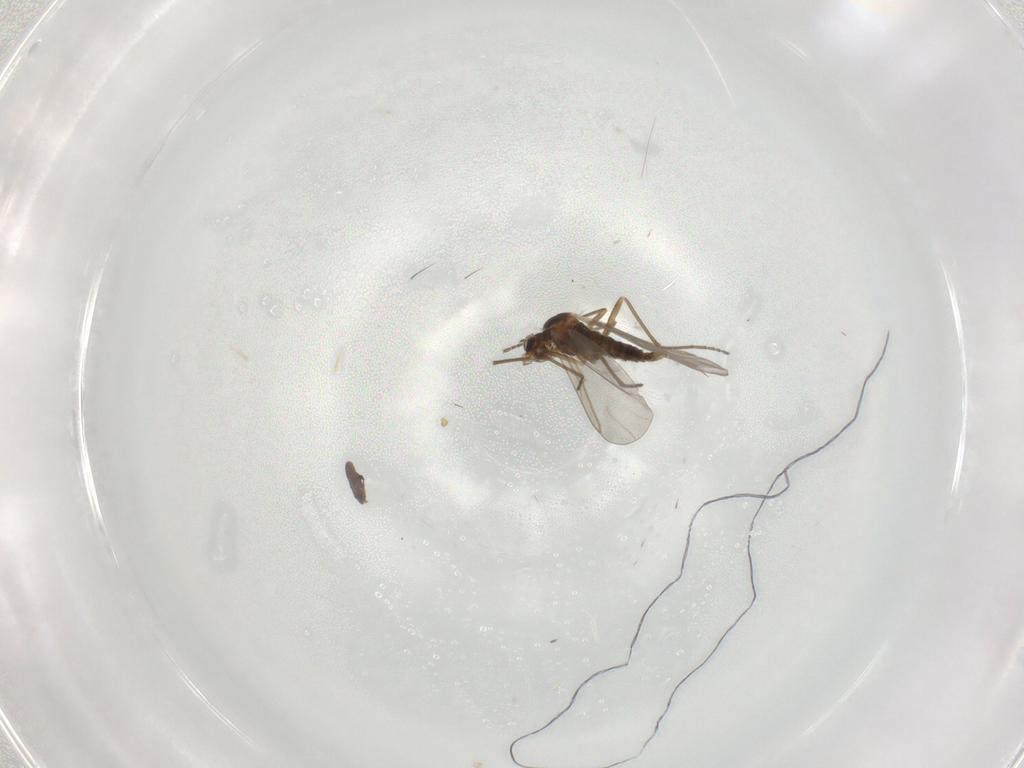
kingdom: Animalia
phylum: Arthropoda
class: Insecta
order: Diptera
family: Cecidomyiidae
